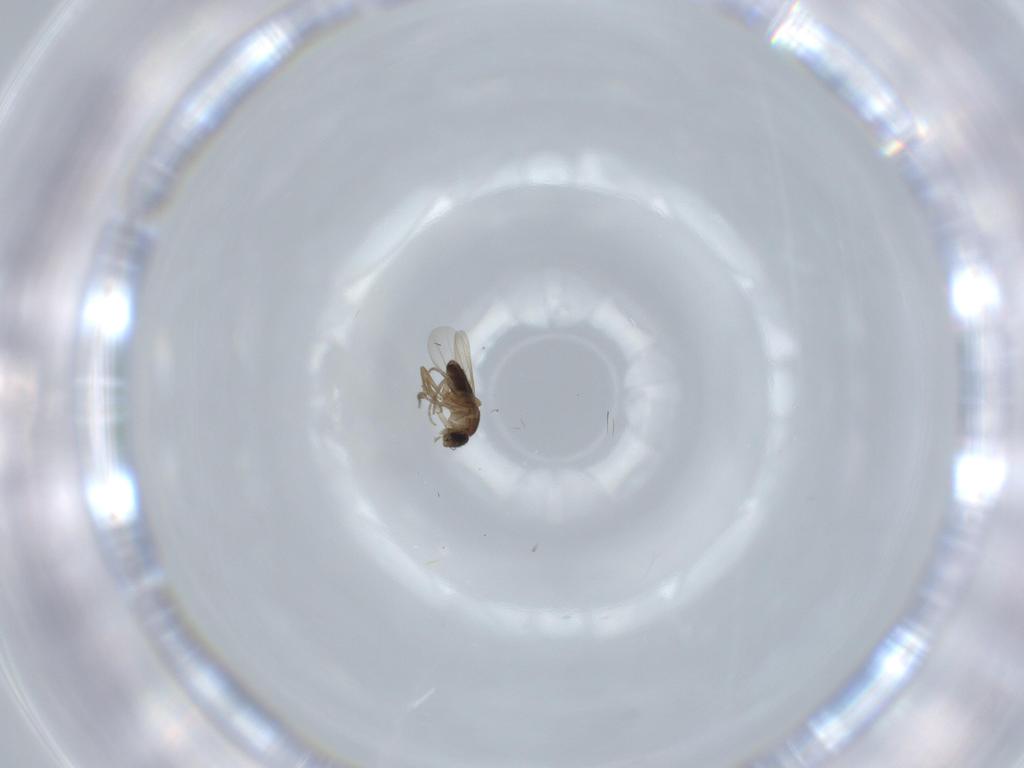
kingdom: Animalia
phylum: Arthropoda
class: Insecta
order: Diptera
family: Phoridae
